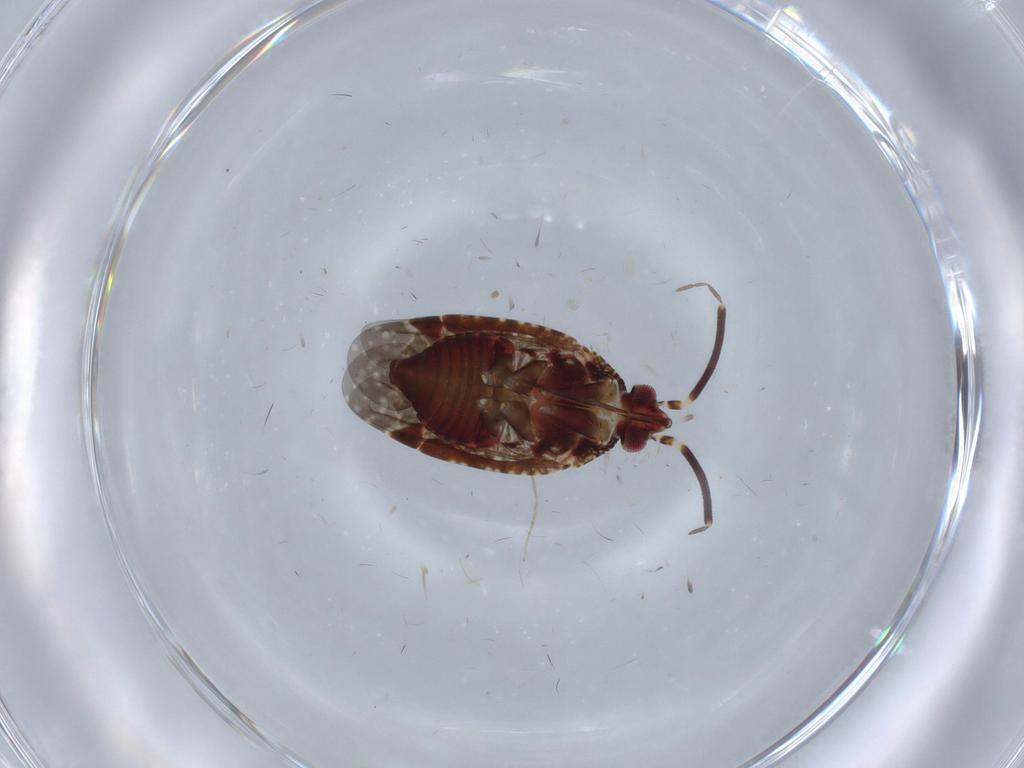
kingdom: Animalia
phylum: Arthropoda
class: Insecta
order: Hemiptera
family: Miridae
